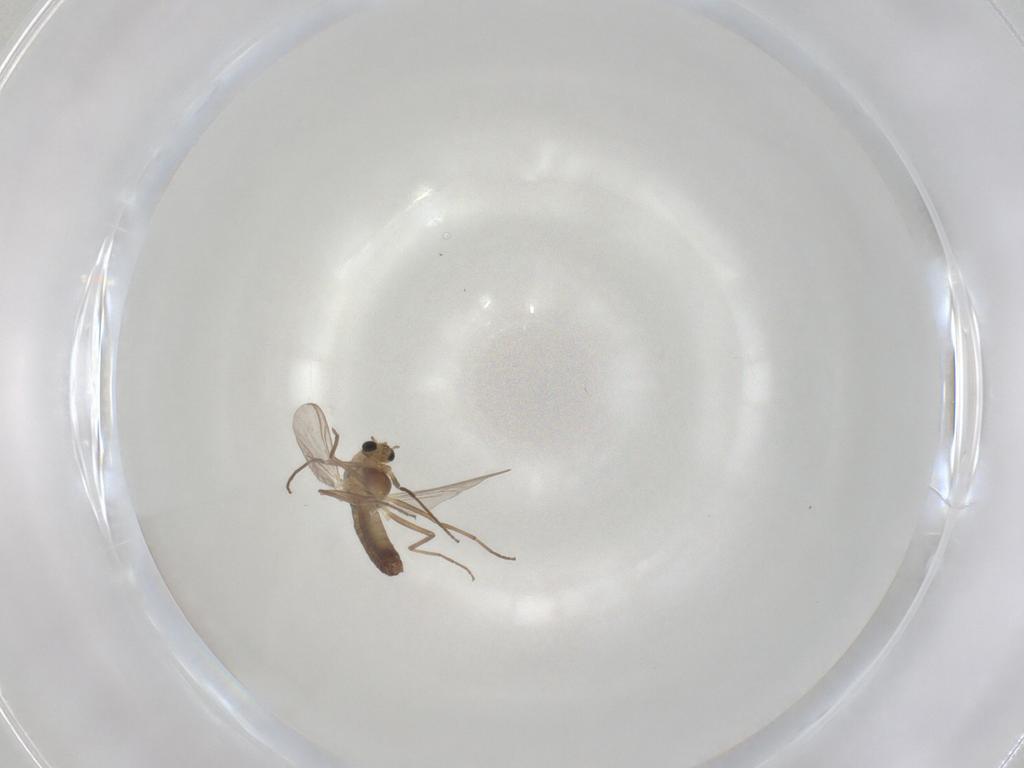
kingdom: Animalia
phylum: Arthropoda
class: Insecta
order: Diptera
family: Chironomidae
